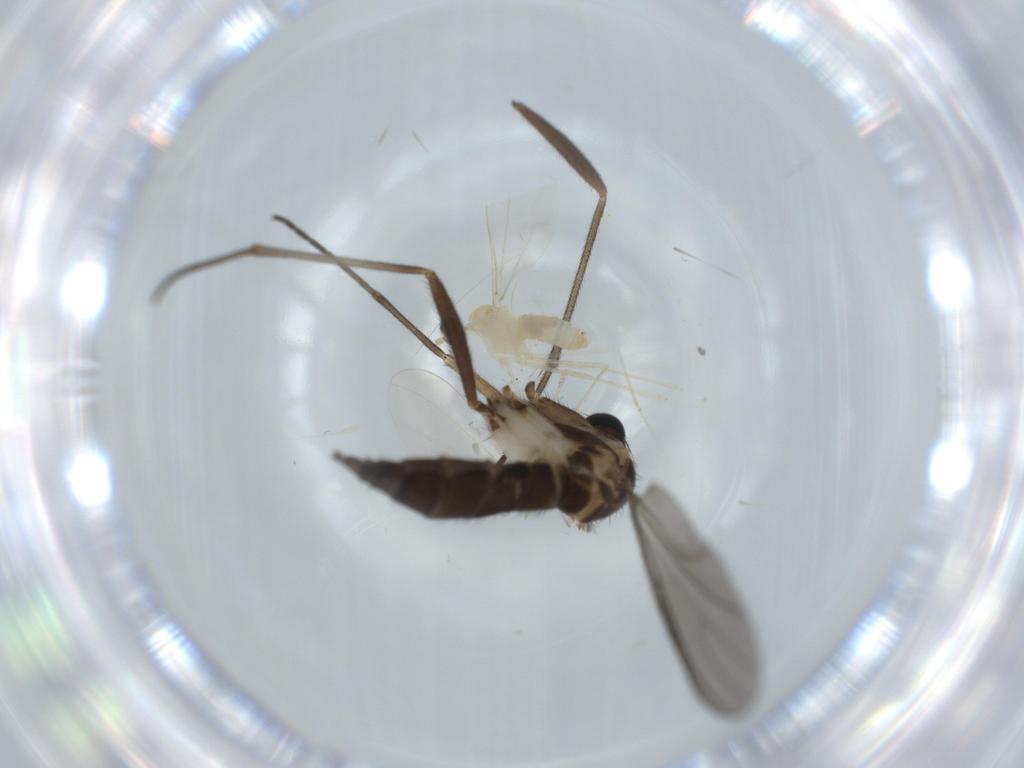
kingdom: Animalia
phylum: Arthropoda
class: Insecta
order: Diptera
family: Sciaridae
